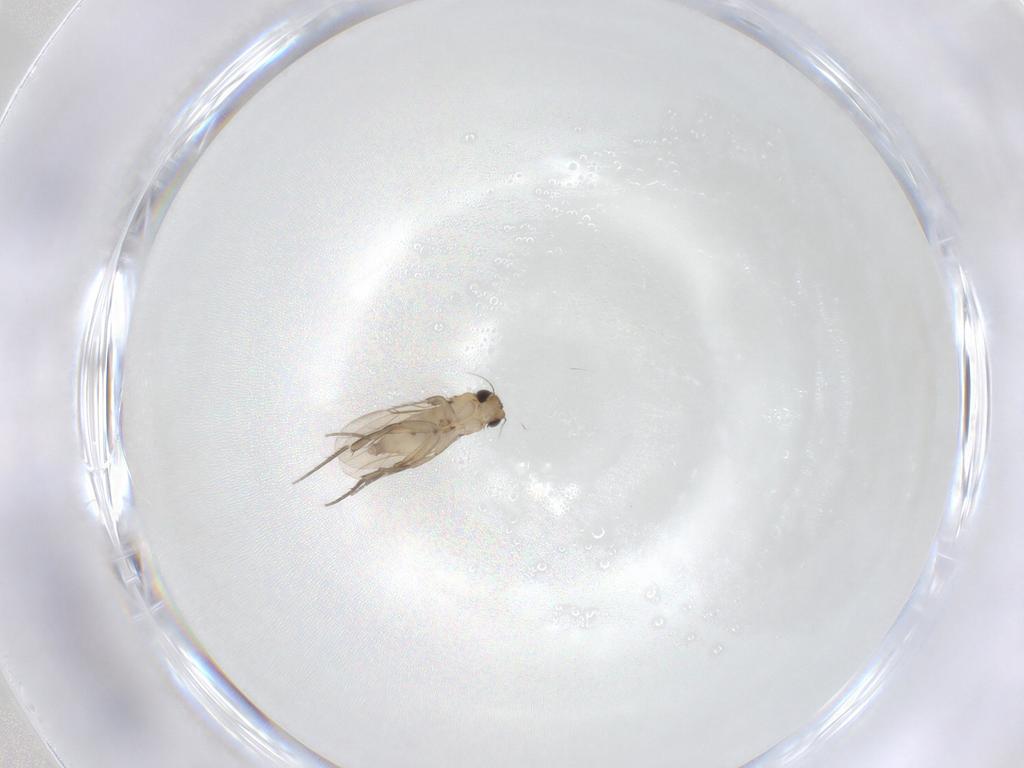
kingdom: Animalia
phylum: Arthropoda
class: Insecta
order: Diptera
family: Phoridae
